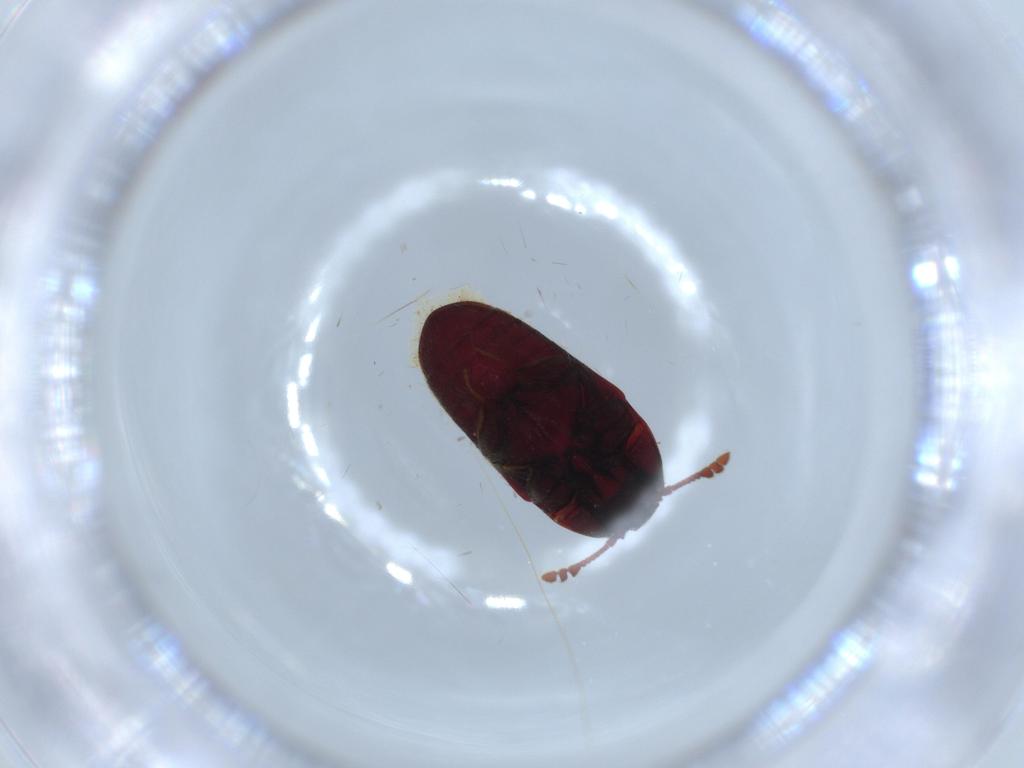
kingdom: Animalia
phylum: Arthropoda
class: Insecta
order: Coleoptera
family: Throscidae
